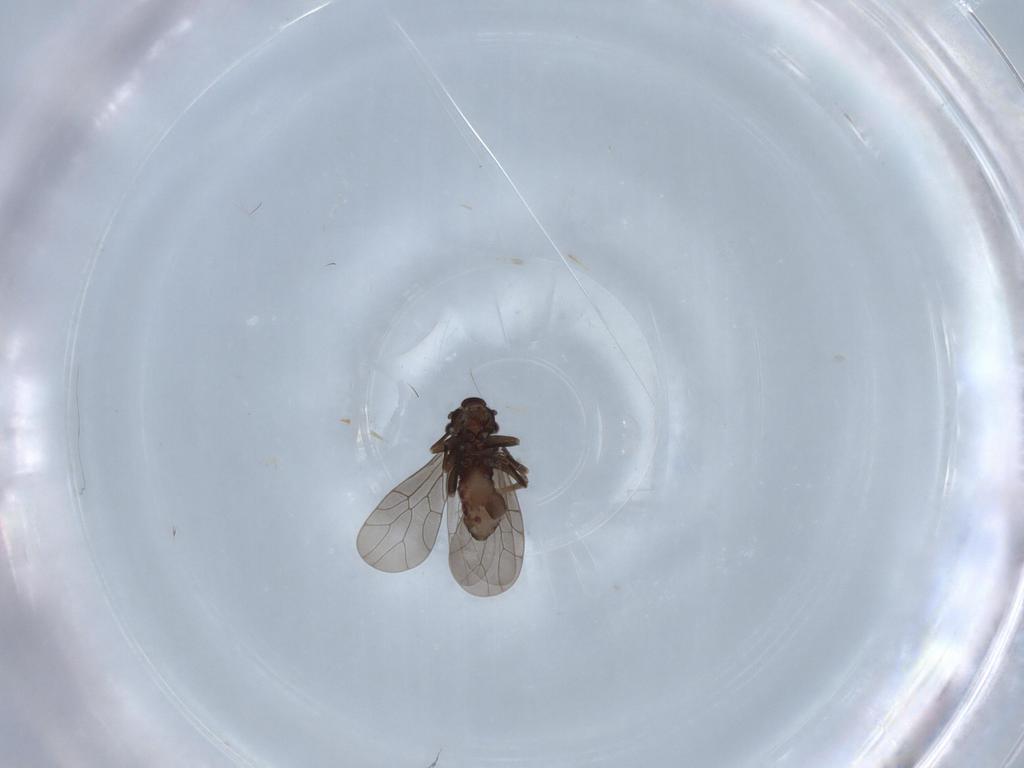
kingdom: Animalia
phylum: Arthropoda
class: Insecta
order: Psocodea
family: Lepidopsocidae
